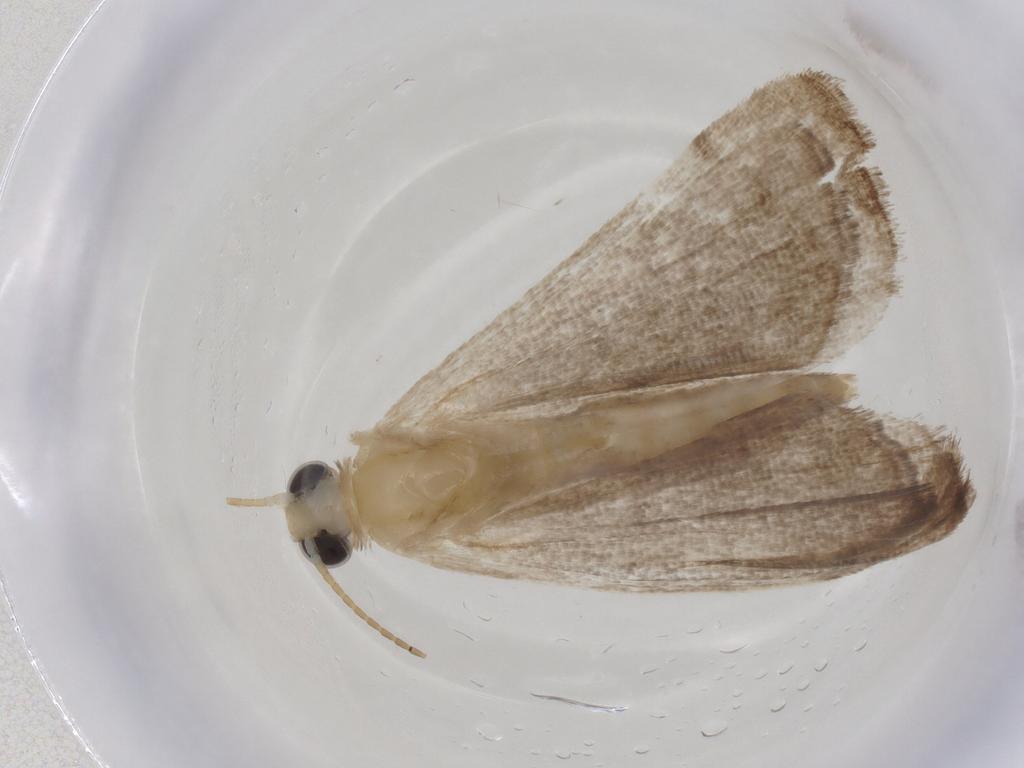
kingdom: Animalia
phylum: Arthropoda
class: Insecta
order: Lepidoptera
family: Crambidae
